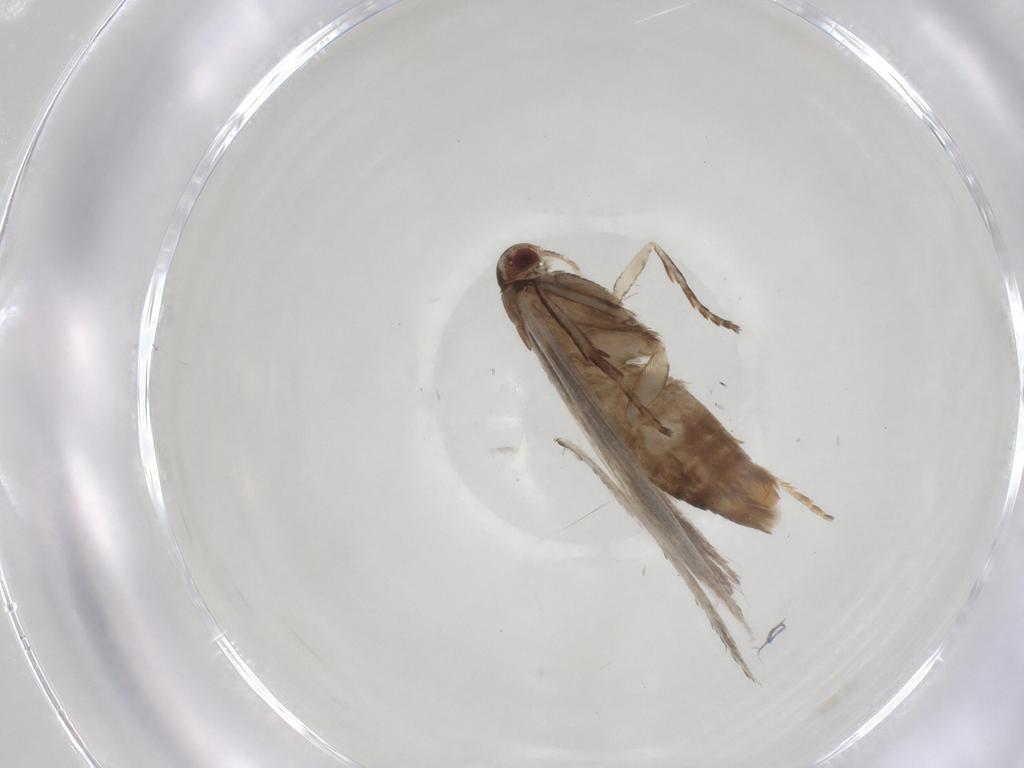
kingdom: Animalia
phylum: Arthropoda
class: Insecta
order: Lepidoptera
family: Gelechiidae
